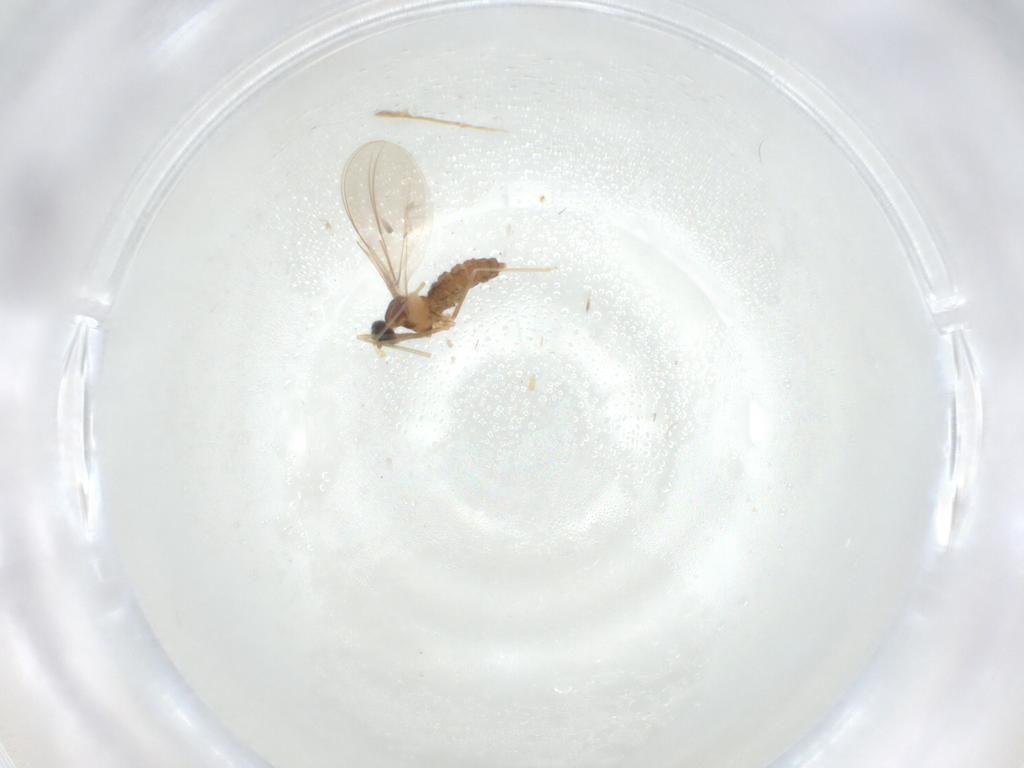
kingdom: Animalia
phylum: Arthropoda
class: Insecta
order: Diptera
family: Cecidomyiidae
